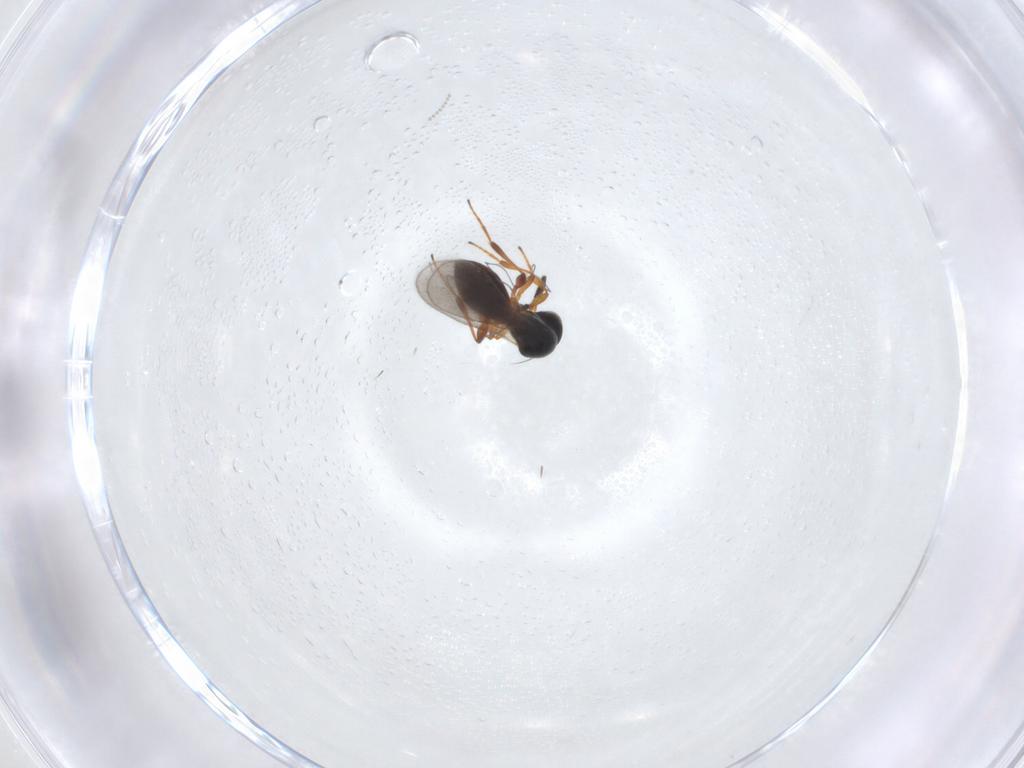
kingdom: Animalia
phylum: Arthropoda
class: Insecta
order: Hymenoptera
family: Platygastridae
